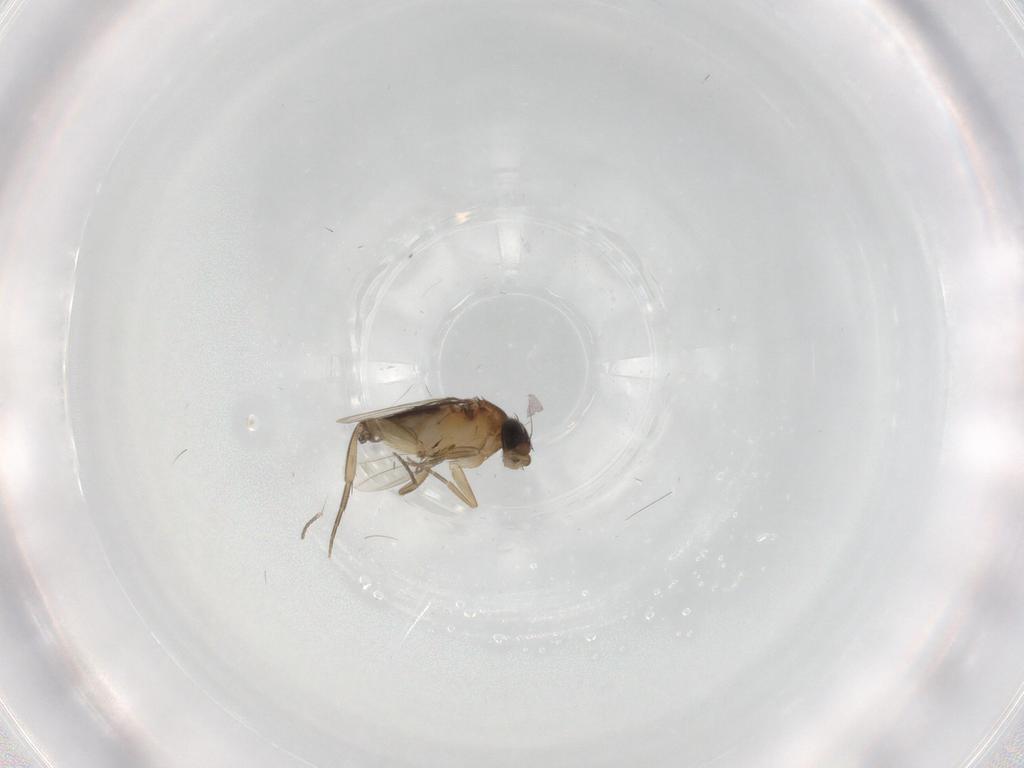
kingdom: Animalia
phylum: Arthropoda
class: Insecta
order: Diptera
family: Phoridae
